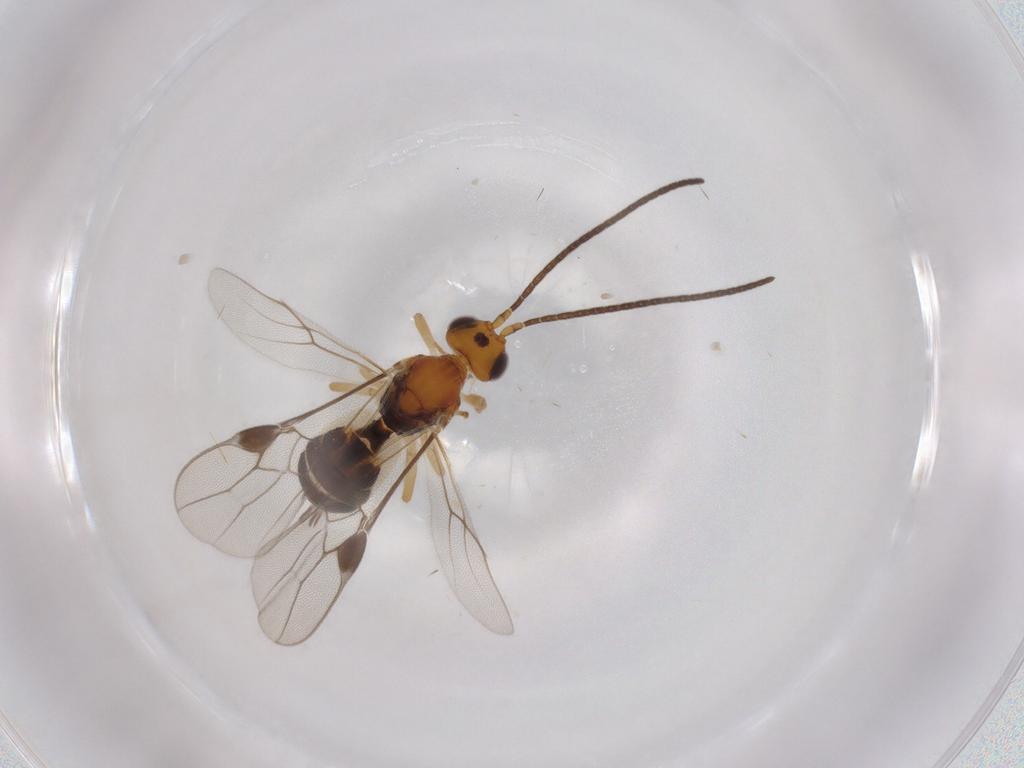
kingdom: Animalia
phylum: Arthropoda
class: Insecta
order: Hymenoptera
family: Braconidae
